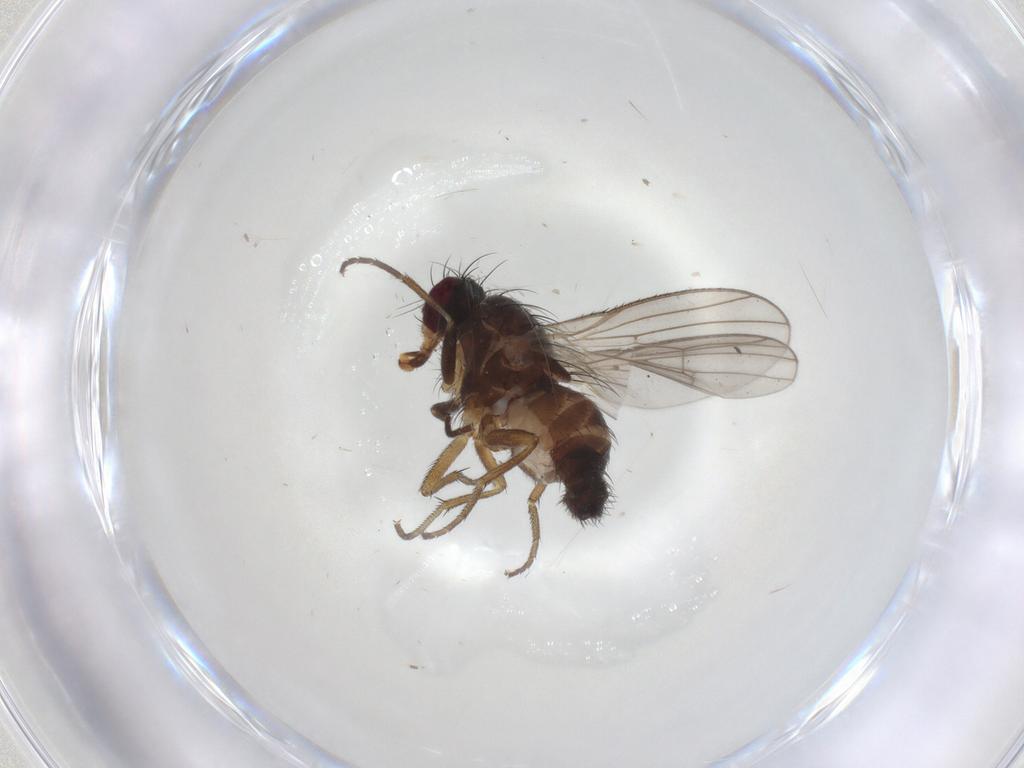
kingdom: Animalia
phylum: Arthropoda
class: Insecta
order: Diptera
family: Heleomyzidae
